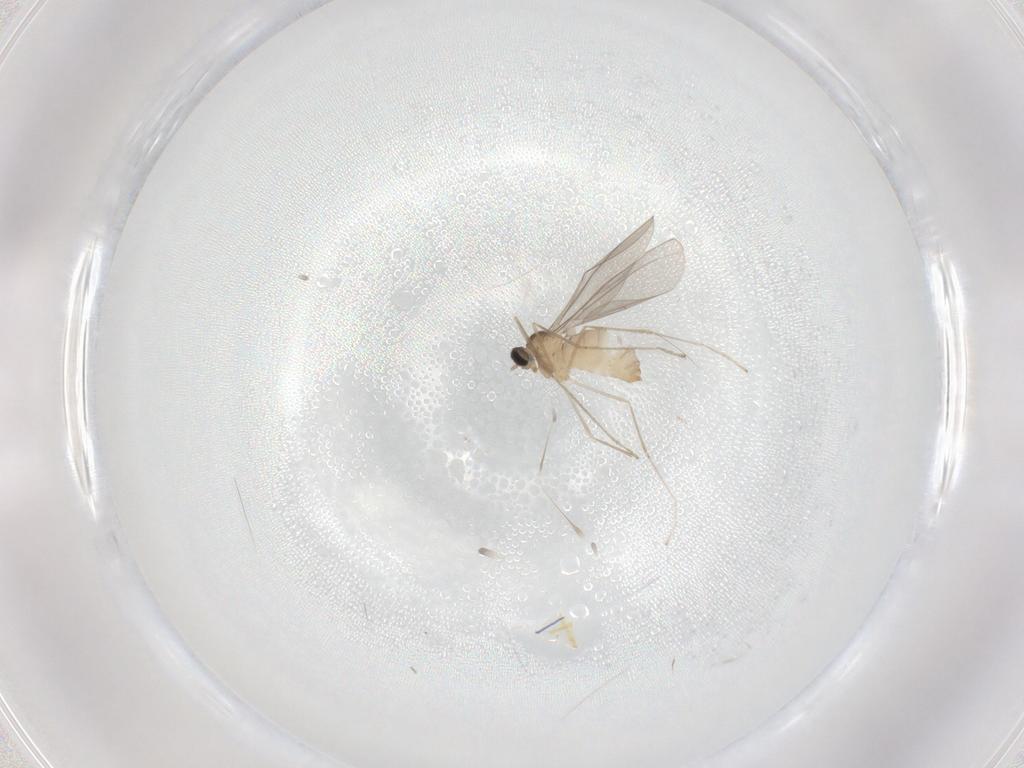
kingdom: Animalia
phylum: Arthropoda
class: Insecta
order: Diptera
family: Cecidomyiidae
